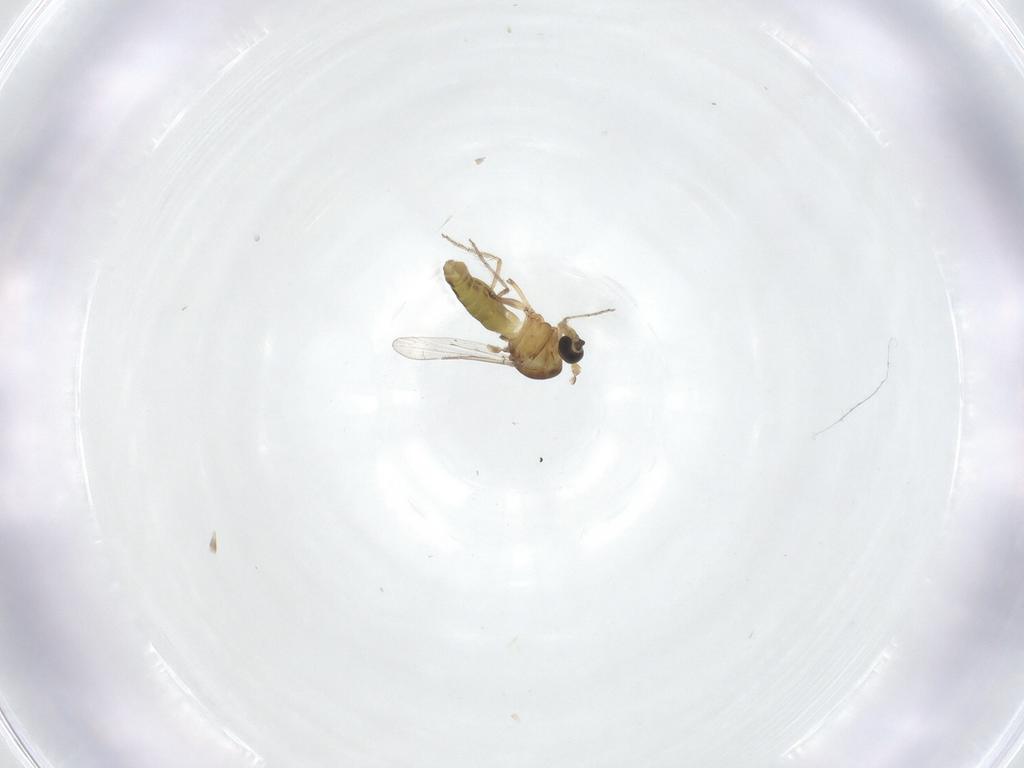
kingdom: Animalia
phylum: Arthropoda
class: Insecta
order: Diptera
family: Ceratopogonidae
